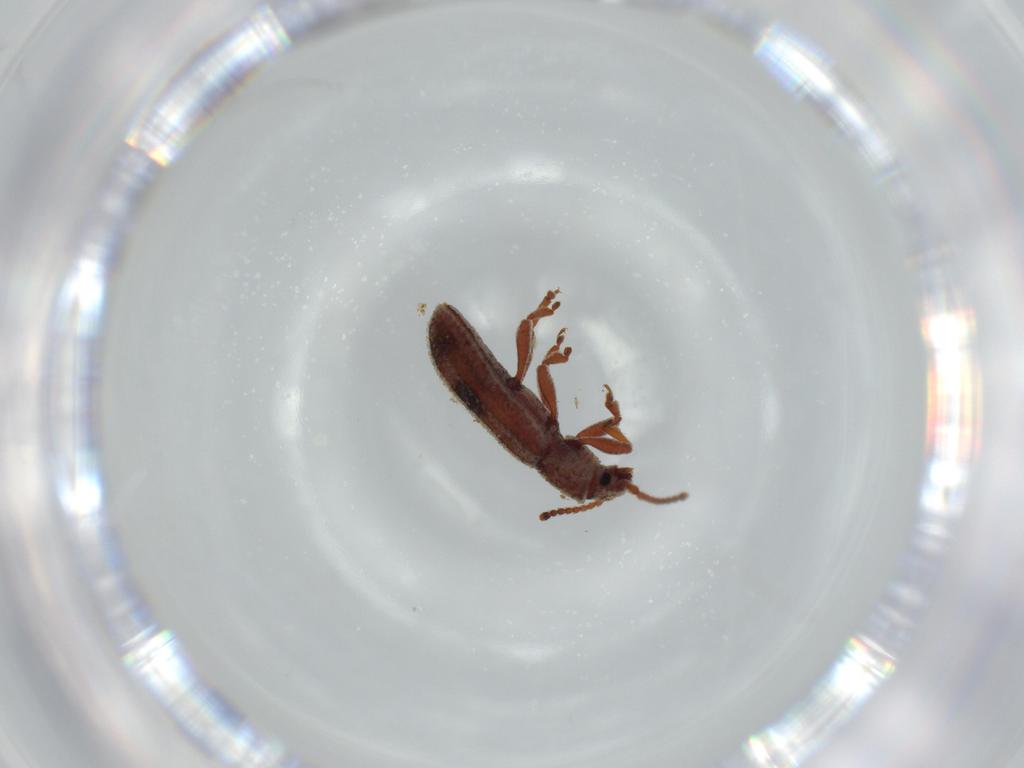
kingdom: Animalia
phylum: Arthropoda
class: Insecta
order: Coleoptera
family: Zopheridae
